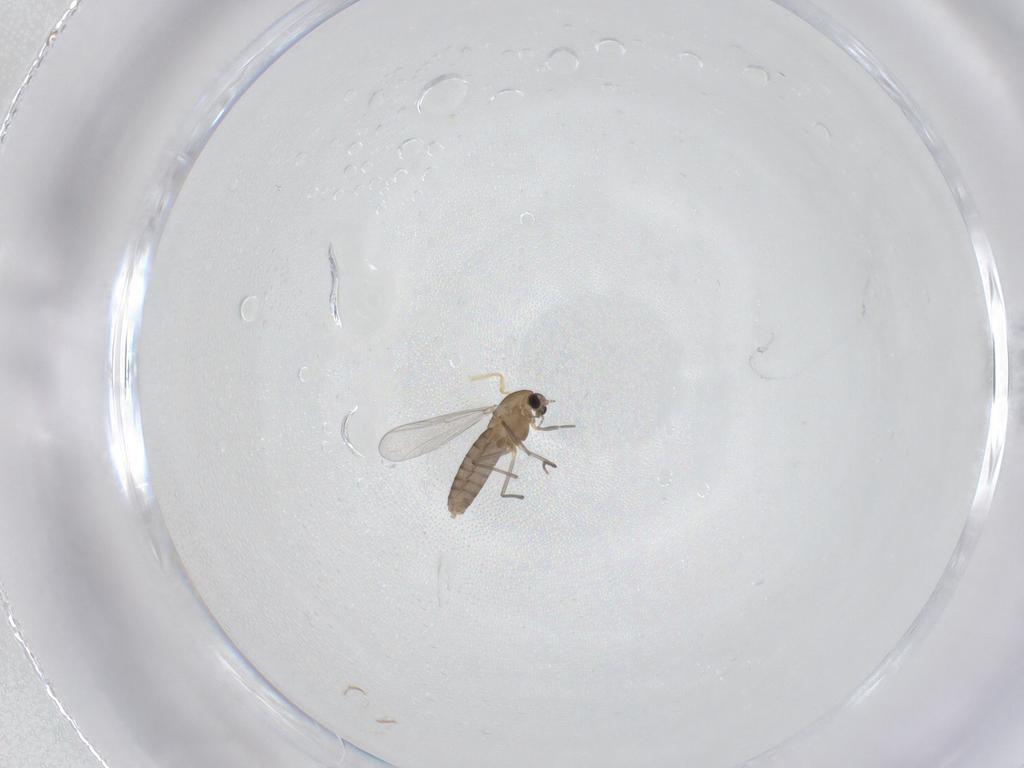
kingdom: Animalia
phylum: Arthropoda
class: Insecta
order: Diptera
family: Chironomidae
